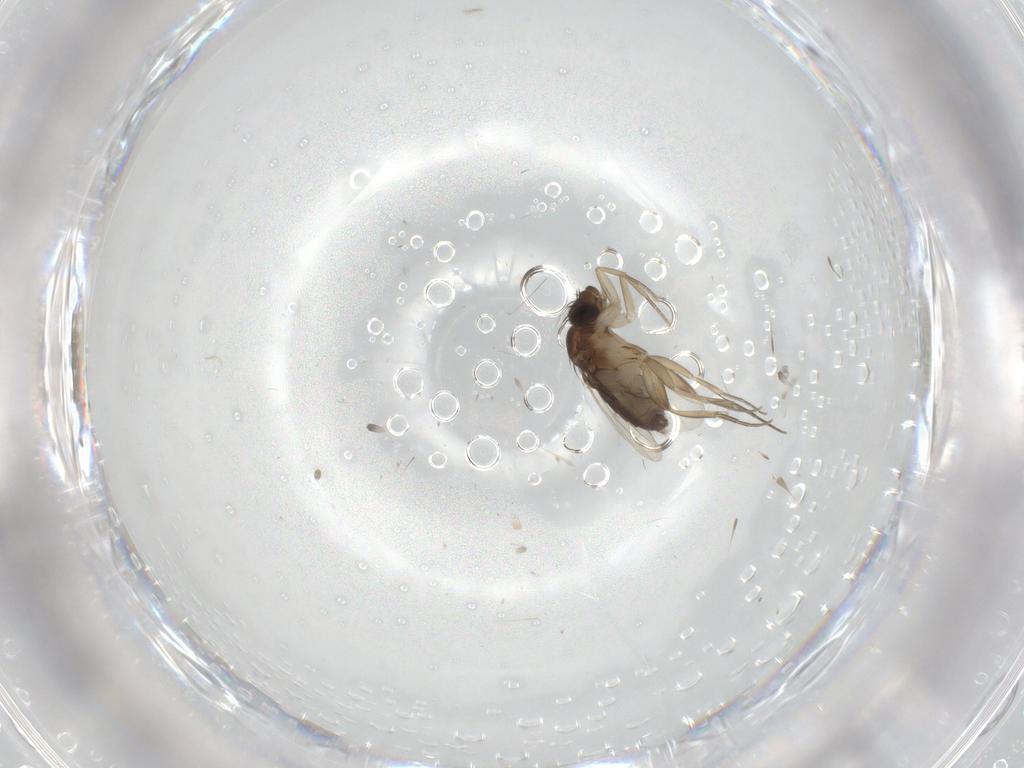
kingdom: Animalia
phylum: Arthropoda
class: Insecta
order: Diptera
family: Phoridae
